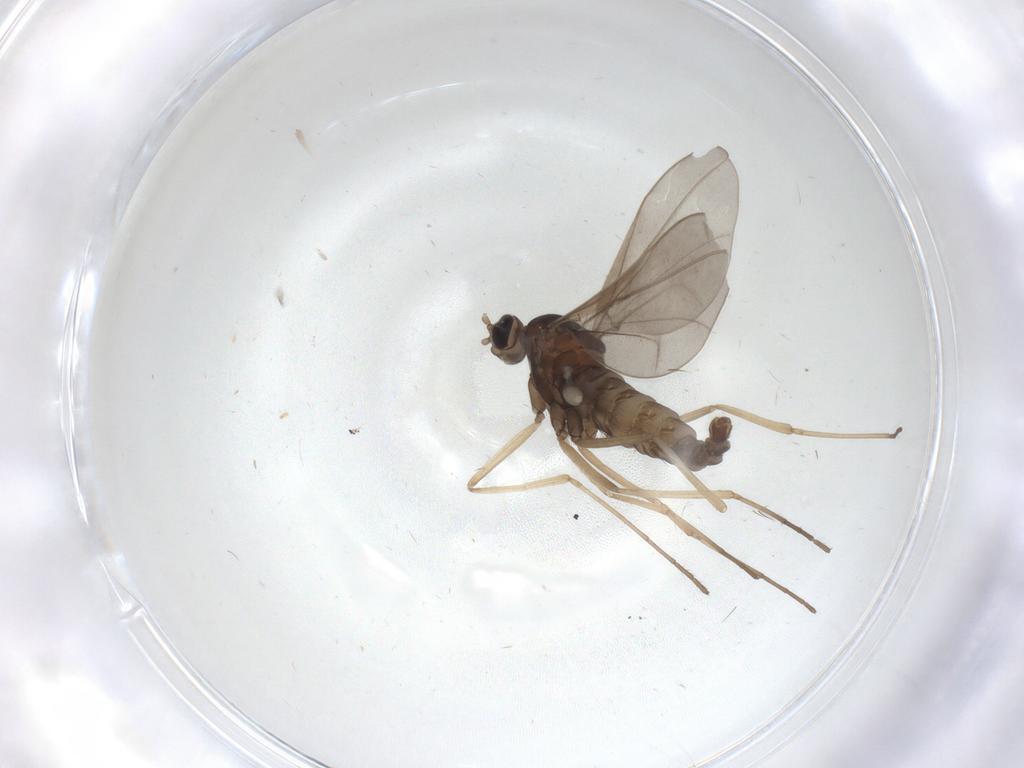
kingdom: Animalia
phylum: Arthropoda
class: Insecta
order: Diptera
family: Cecidomyiidae
